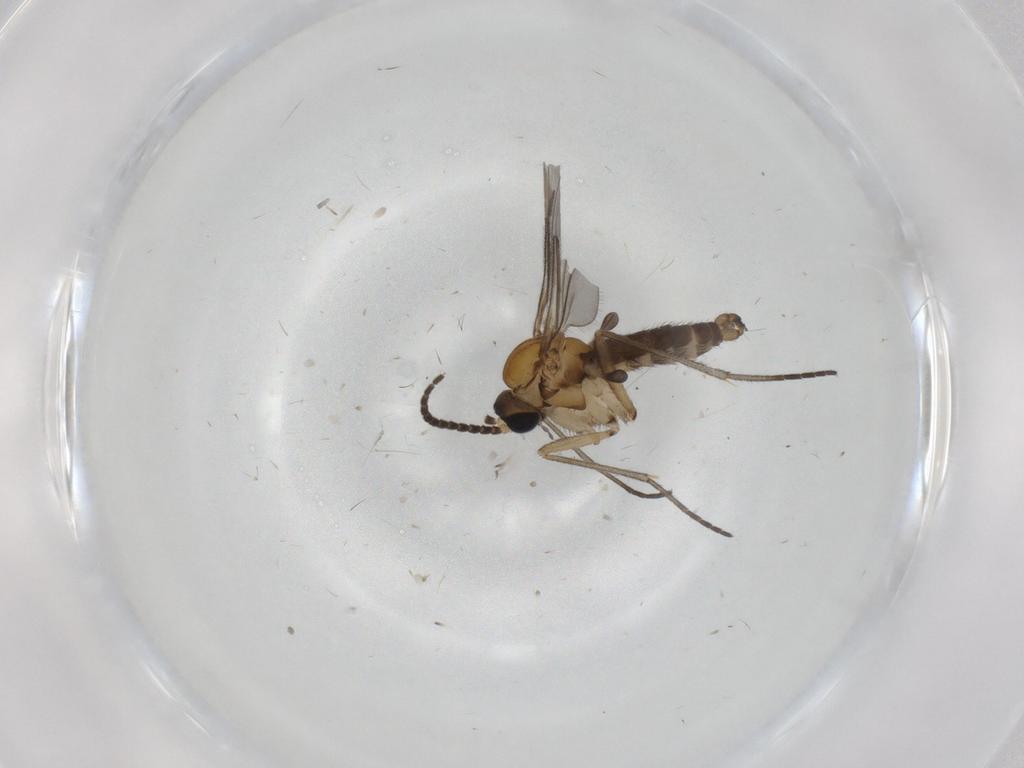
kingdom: Animalia
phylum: Arthropoda
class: Insecta
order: Diptera
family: Sciaridae
